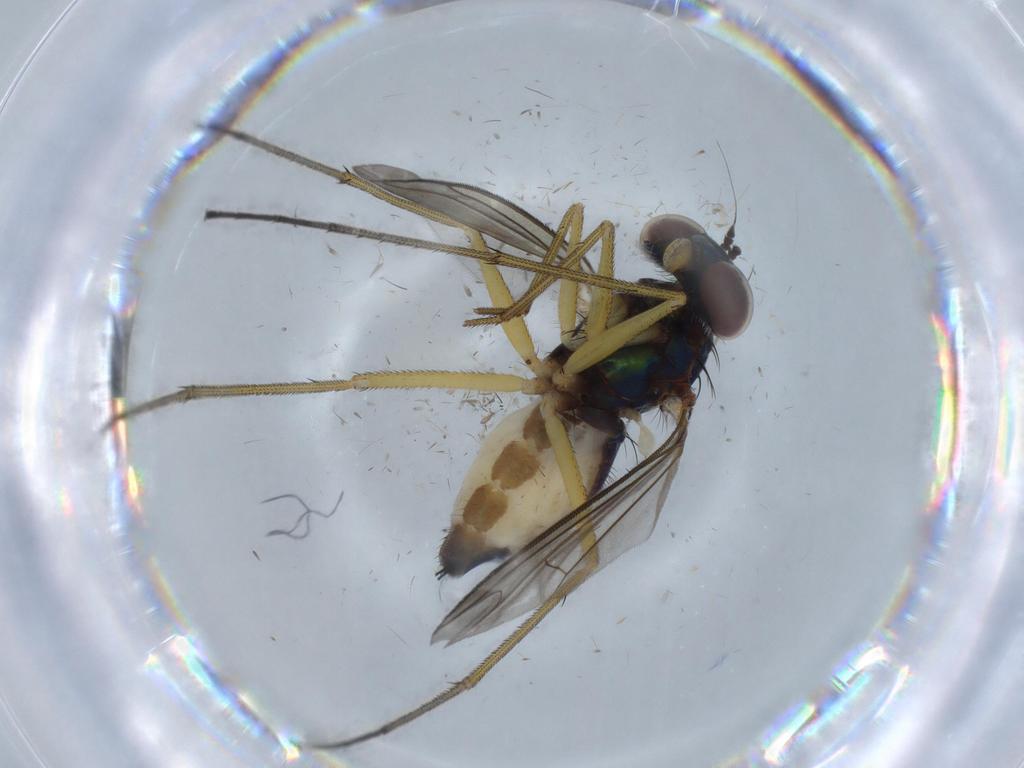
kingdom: Animalia
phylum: Arthropoda
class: Insecta
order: Diptera
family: Dolichopodidae
